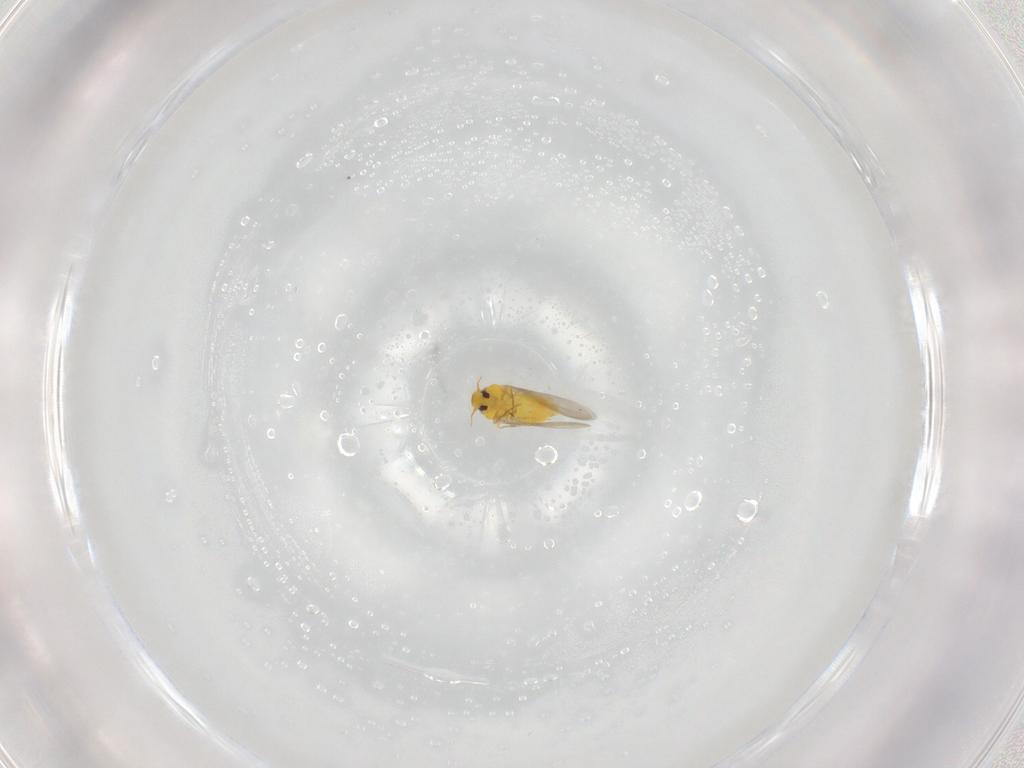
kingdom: Animalia
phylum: Arthropoda
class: Insecta
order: Hemiptera
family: Aleyrodidae
